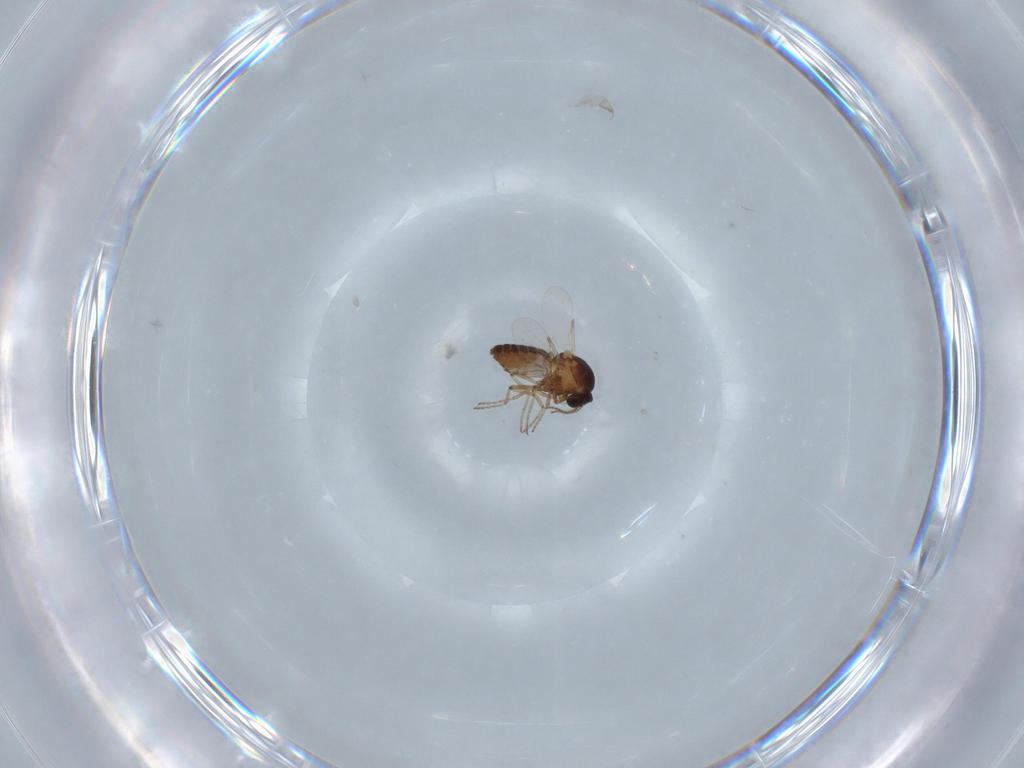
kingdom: Animalia
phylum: Arthropoda
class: Insecta
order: Diptera
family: Ceratopogonidae
